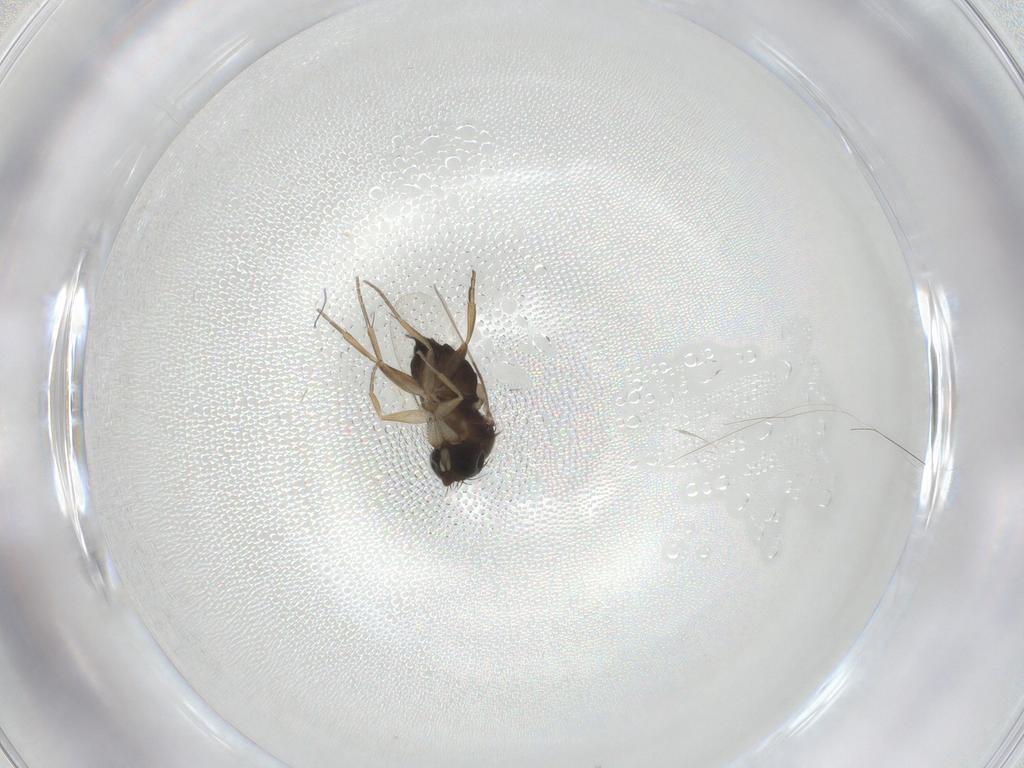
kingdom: Animalia
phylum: Arthropoda
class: Insecta
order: Diptera
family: Phoridae
